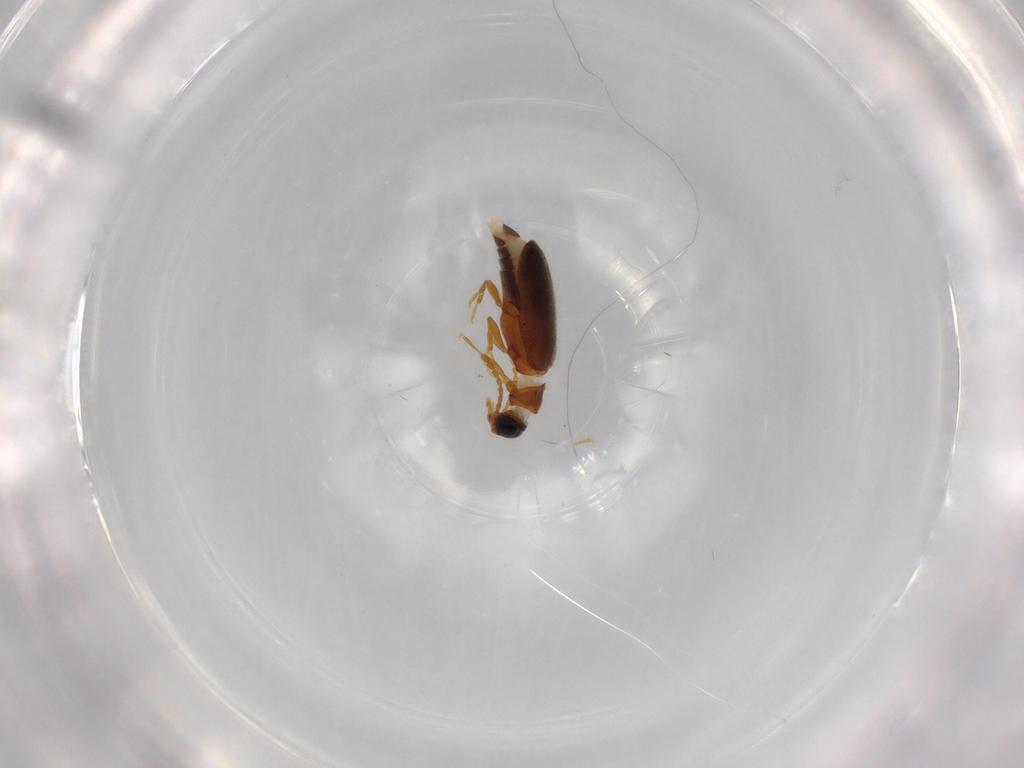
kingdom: Animalia
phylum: Arthropoda
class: Insecta
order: Coleoptera
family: Aderidae
